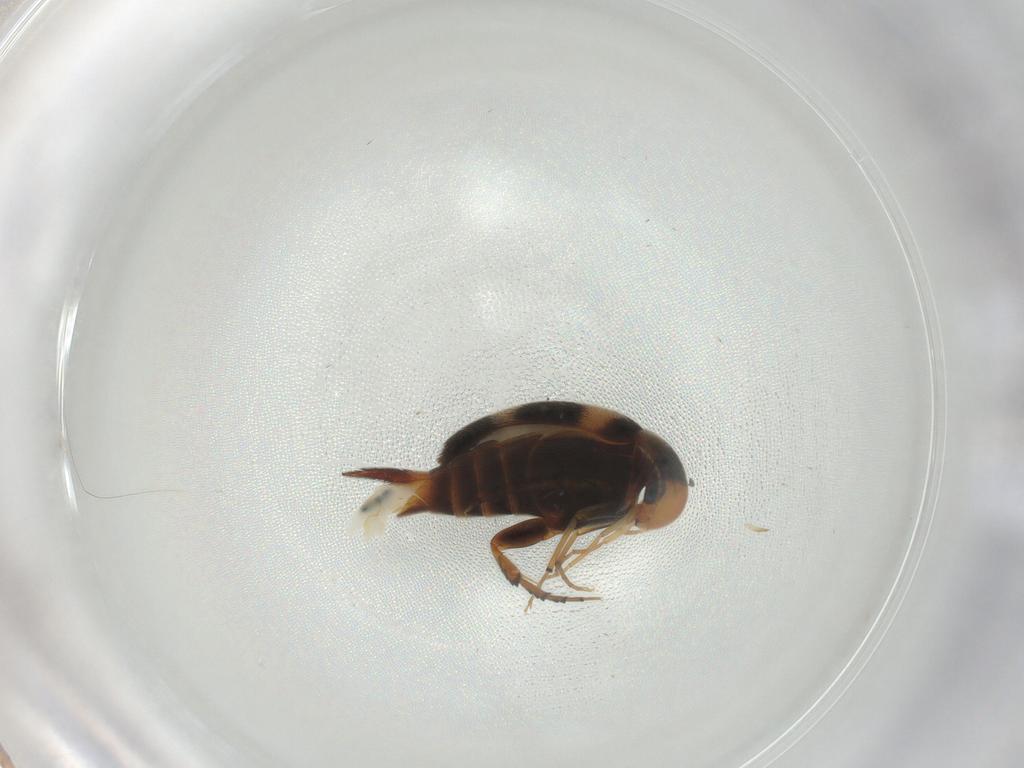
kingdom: Animalia
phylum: Arthropoda
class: Insecta
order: Coleoptera
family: Mordellidae
